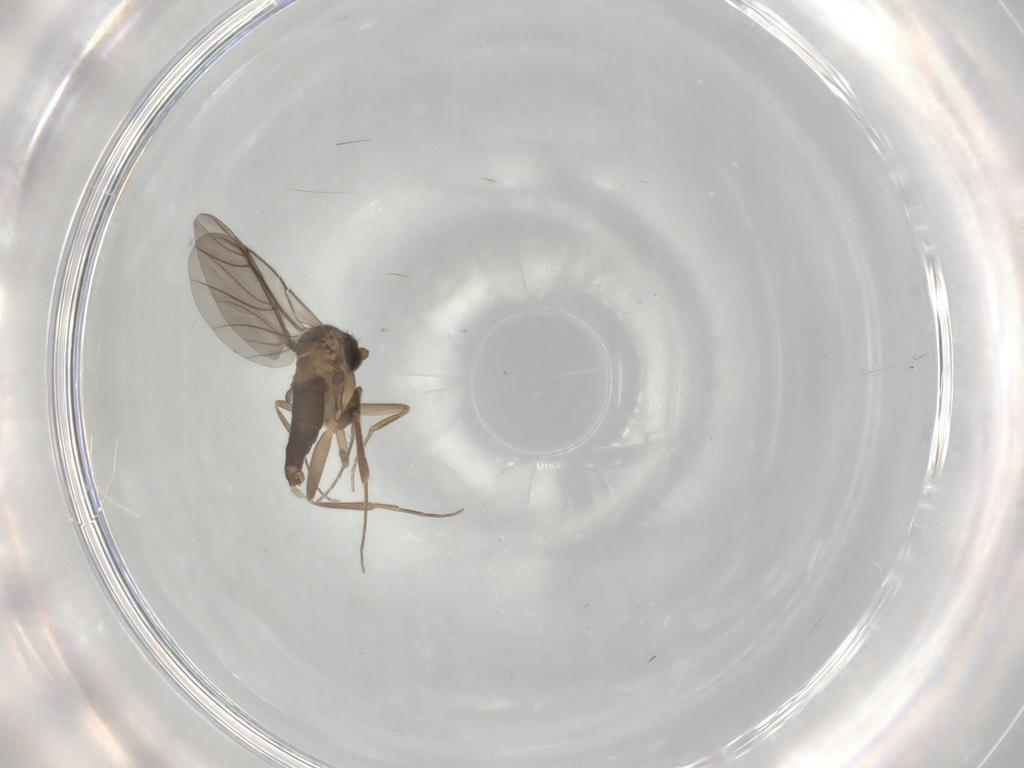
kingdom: Animalia
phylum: Arthropoda
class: Insecta
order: Diptera
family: Phoridae
